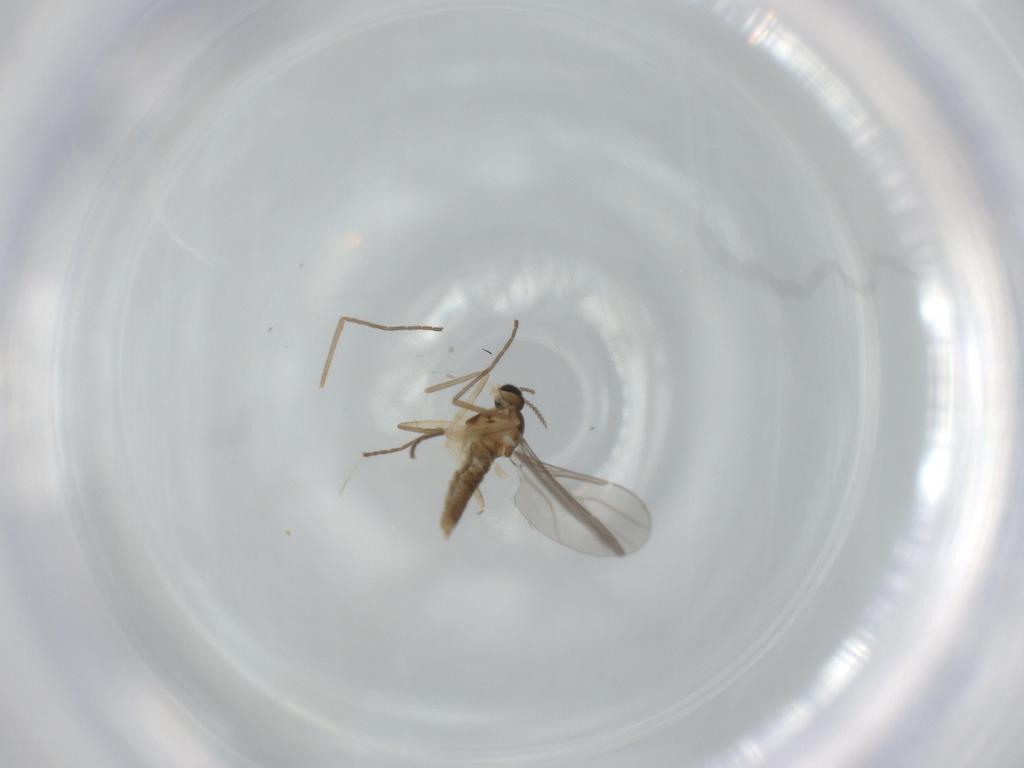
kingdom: Animalia
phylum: Arthropoda
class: Insecta
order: Diptera
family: Cecidomyiidae
